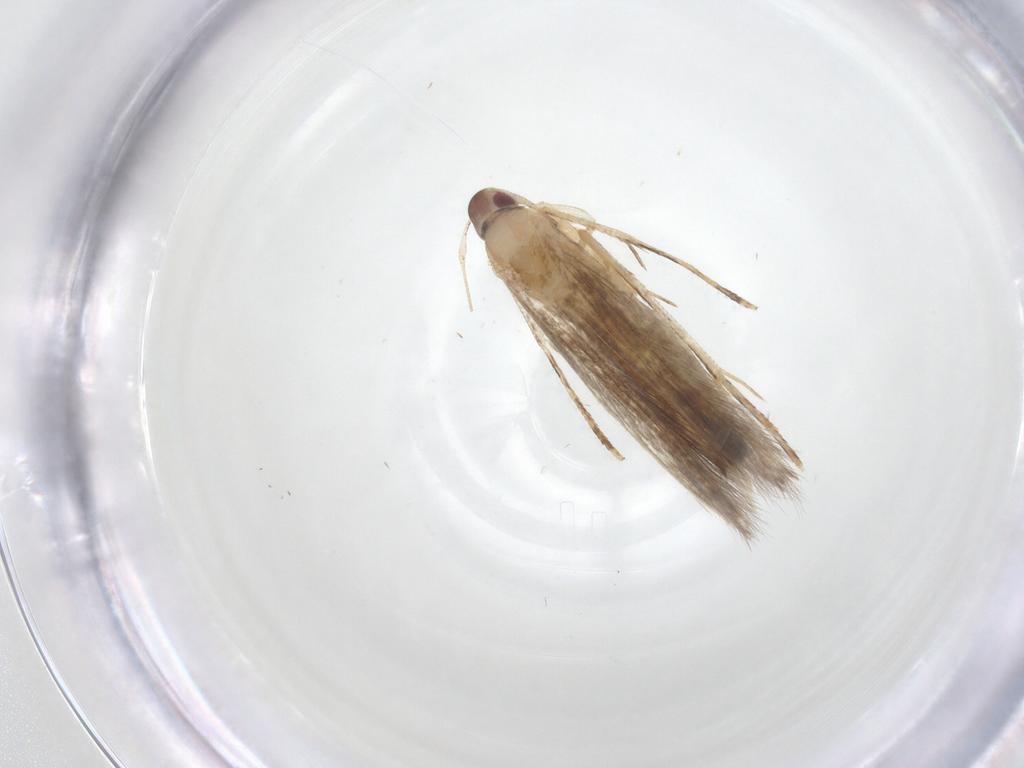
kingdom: Animalia
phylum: Arthropoda
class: Insecta
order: Lepidoptera
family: Cosmopterigidae
